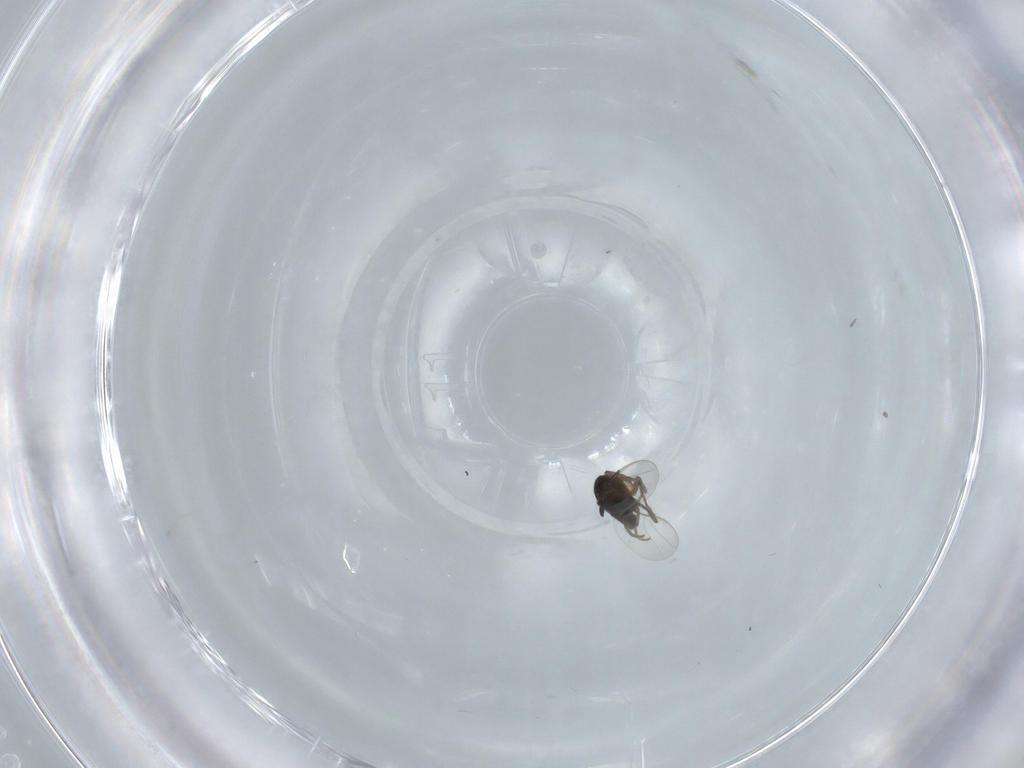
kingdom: Animalia
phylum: Arthropoda
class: Insecta
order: Diptera
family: Phoridae
